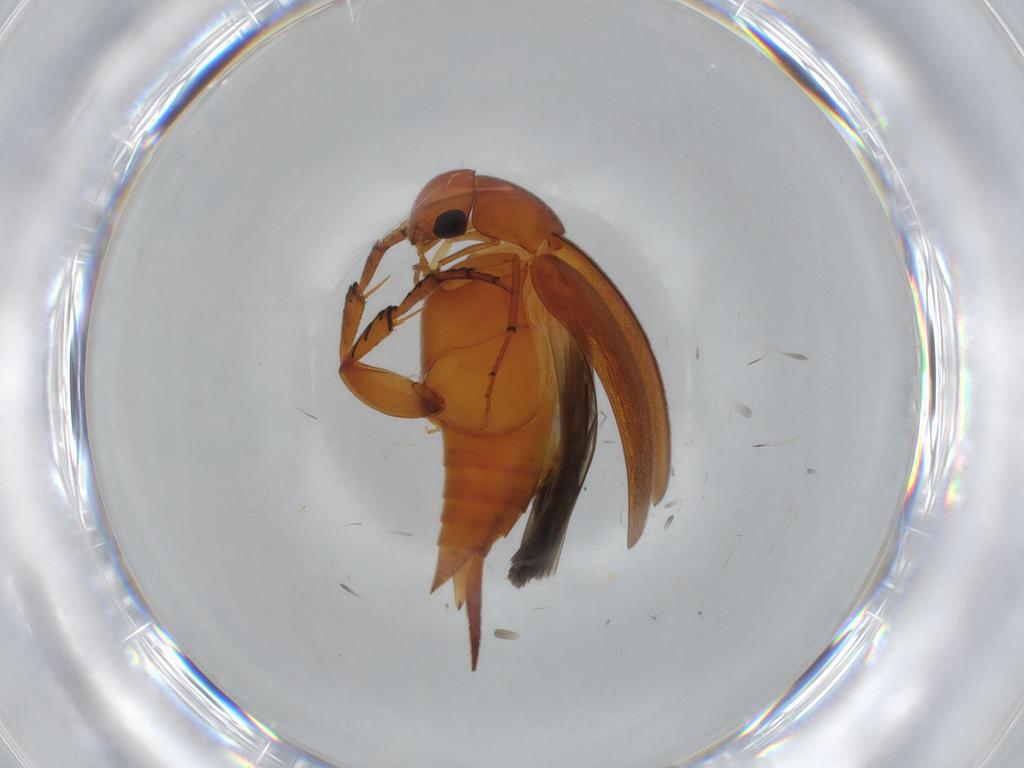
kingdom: Animalia
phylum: Arthropoda
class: Insecta
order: Coleoptera
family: Mordellidae
